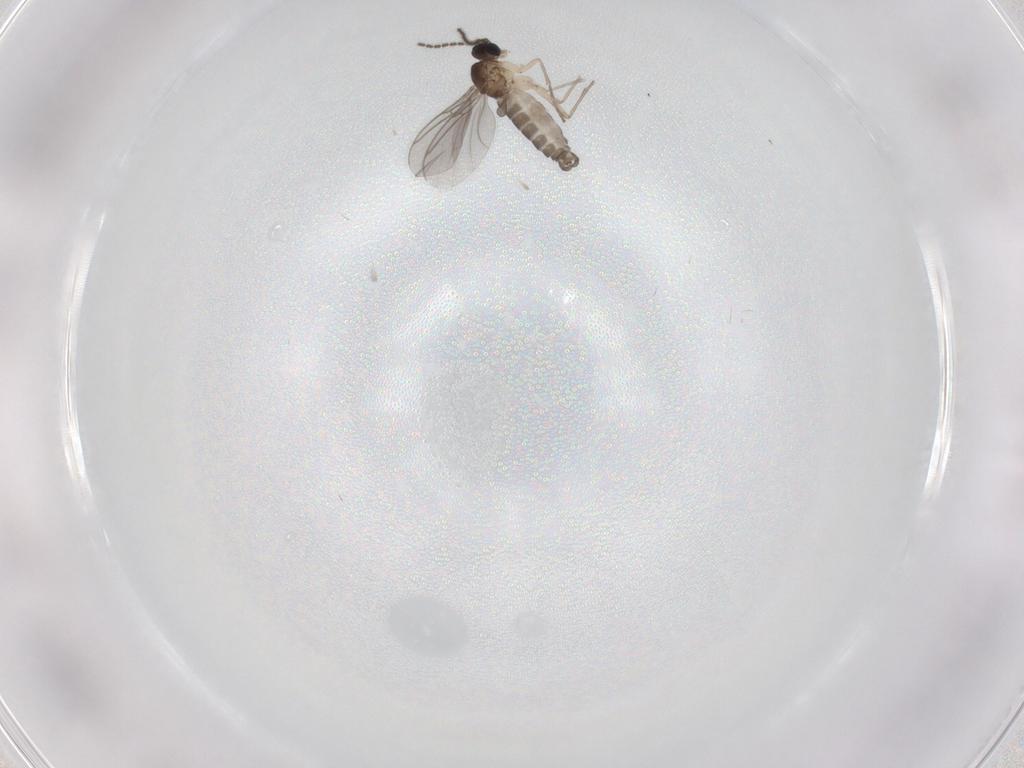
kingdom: Animalia
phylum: Arthropoda
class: Insecta
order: Diptera
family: Sciaridae
